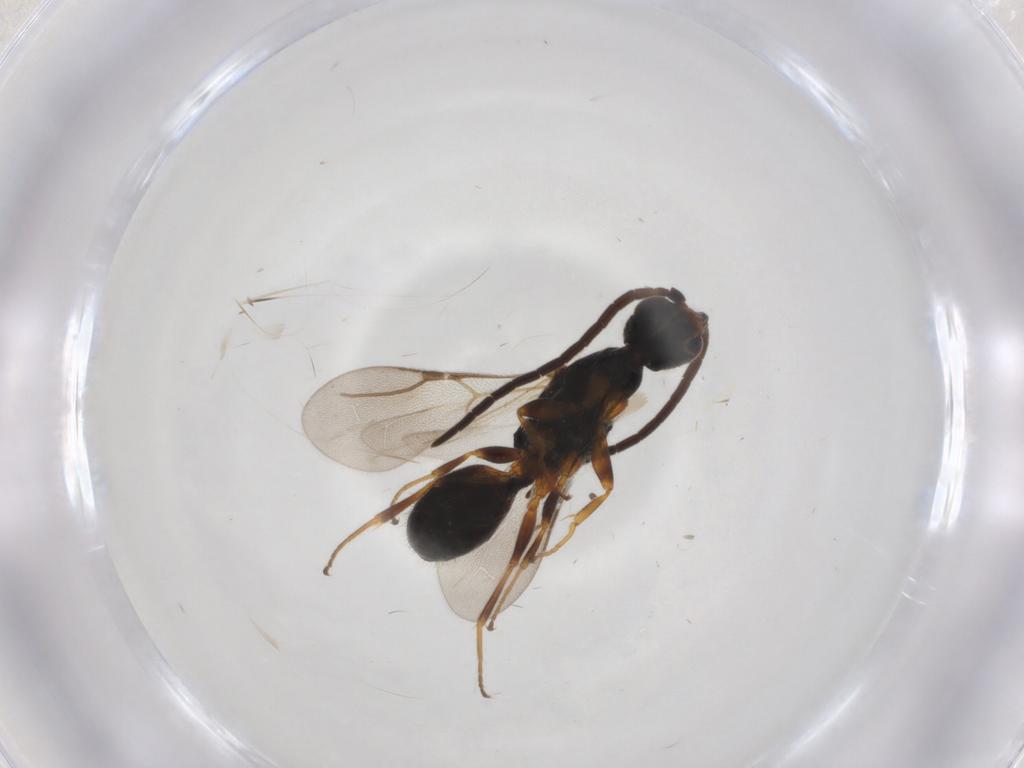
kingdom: Animalia
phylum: Arthropoda
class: Insecta
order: Hymenoptera
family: Bethylidae
